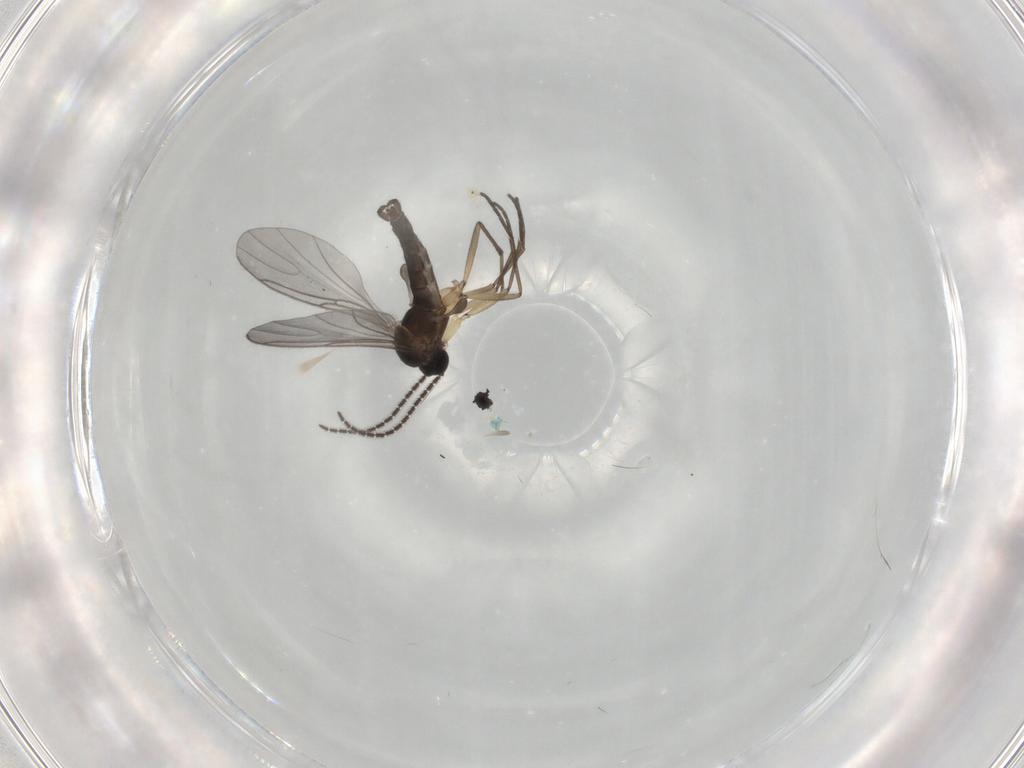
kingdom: Animalia
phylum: Arthropoda
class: Insecta
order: Diptera
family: Sciaridae
